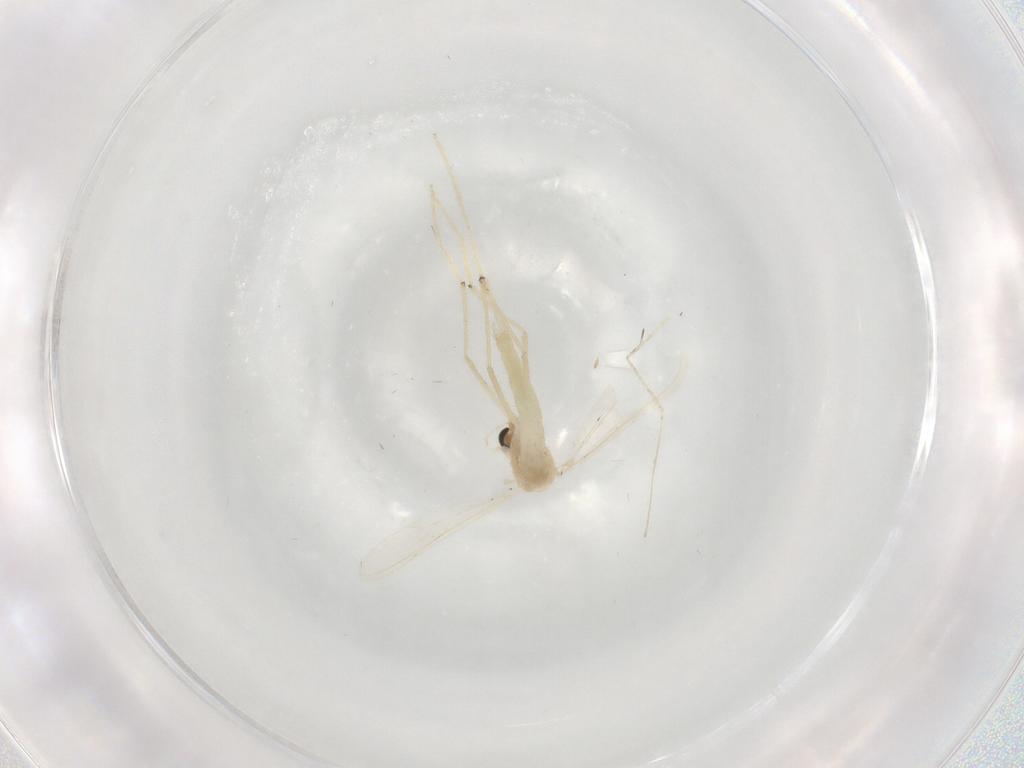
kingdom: Animalia
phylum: Arthropoda
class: Insecta
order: Diptera
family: Chironomidae
